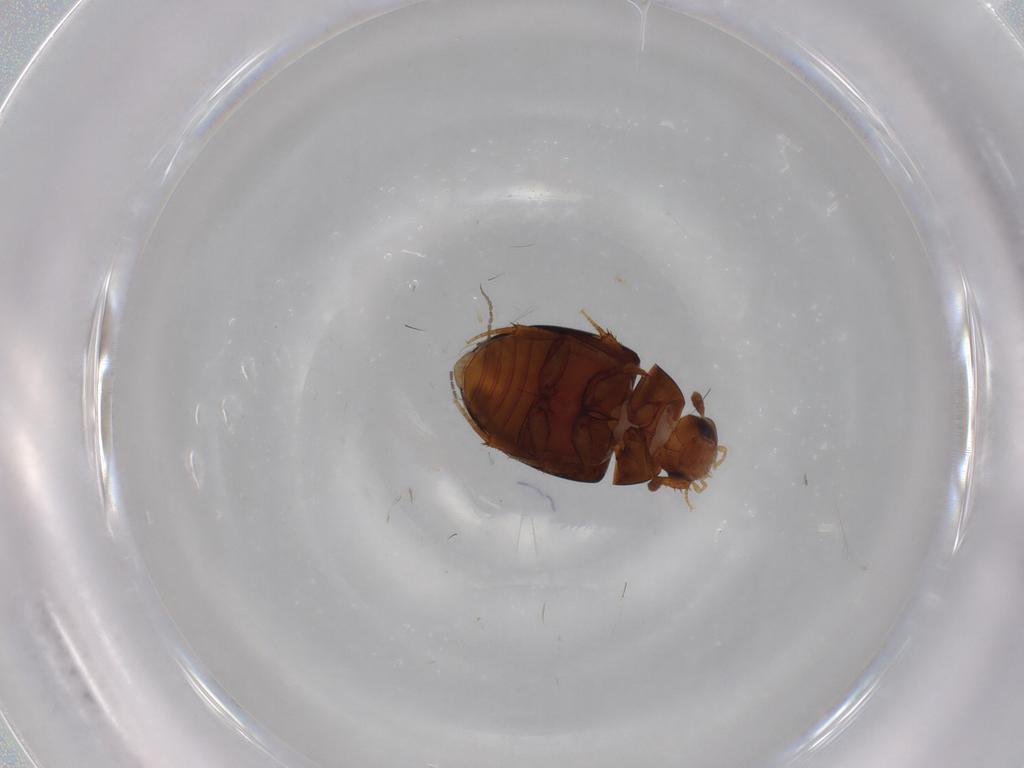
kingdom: Animalia
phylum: Arthropoda
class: Insecta
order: Coleoptera
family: Hydrophilidae
